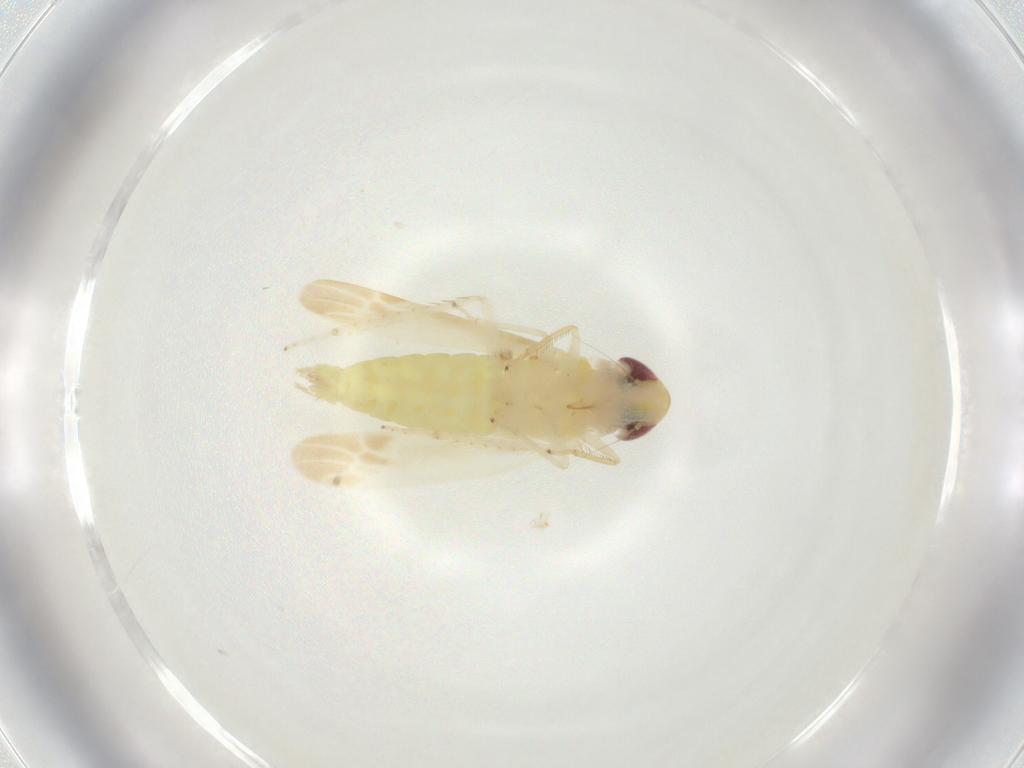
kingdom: Animalia
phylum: Arthropoda
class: Insecta
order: Hemiptera
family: Cicadellidae
